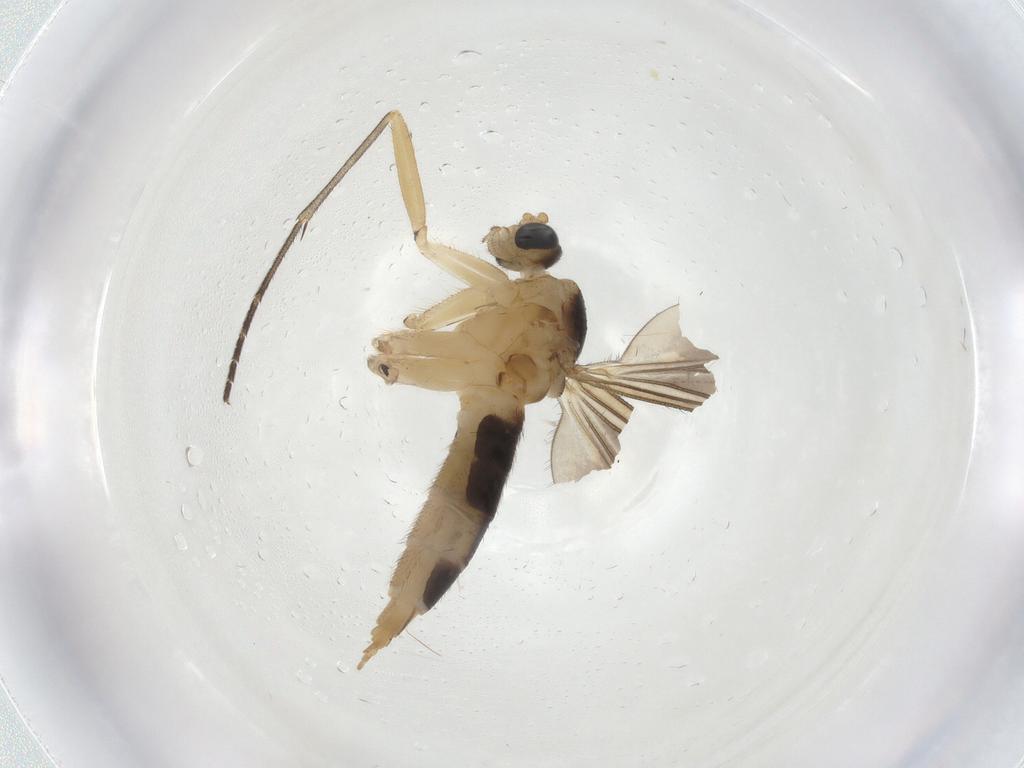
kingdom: Animalia
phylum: Arthropoda
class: Insecta
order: Diptera
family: Sciaridae
